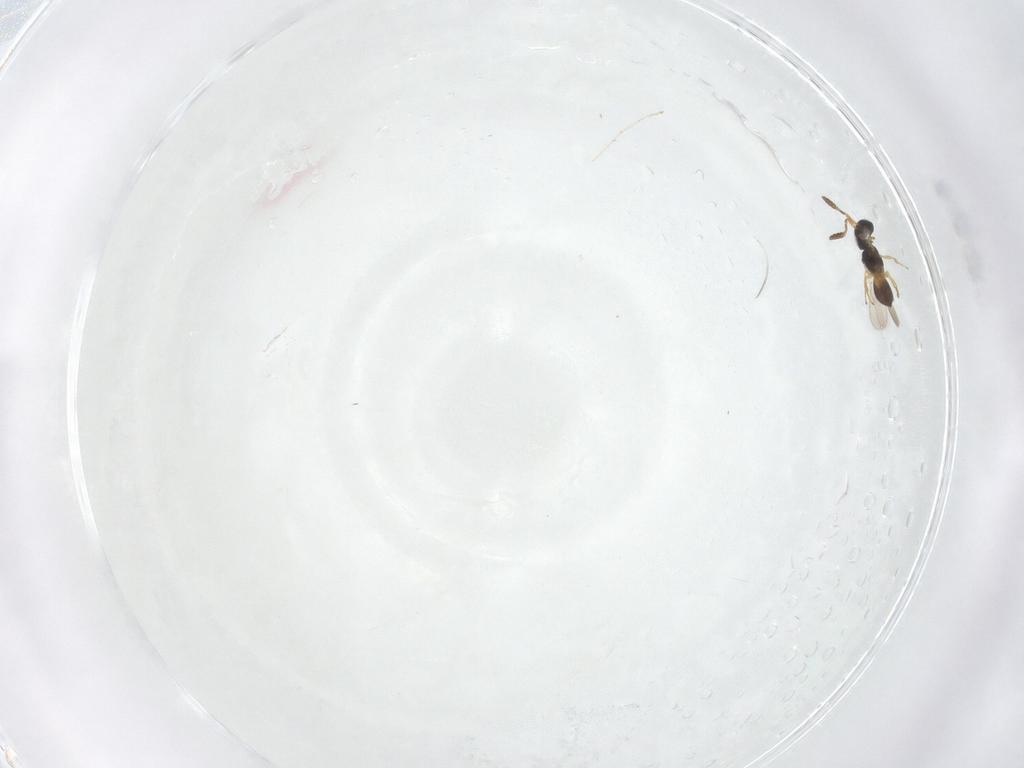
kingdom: Animalia
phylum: Arthropoda
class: Insecta
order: Hymenoptera
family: Scelionidae
